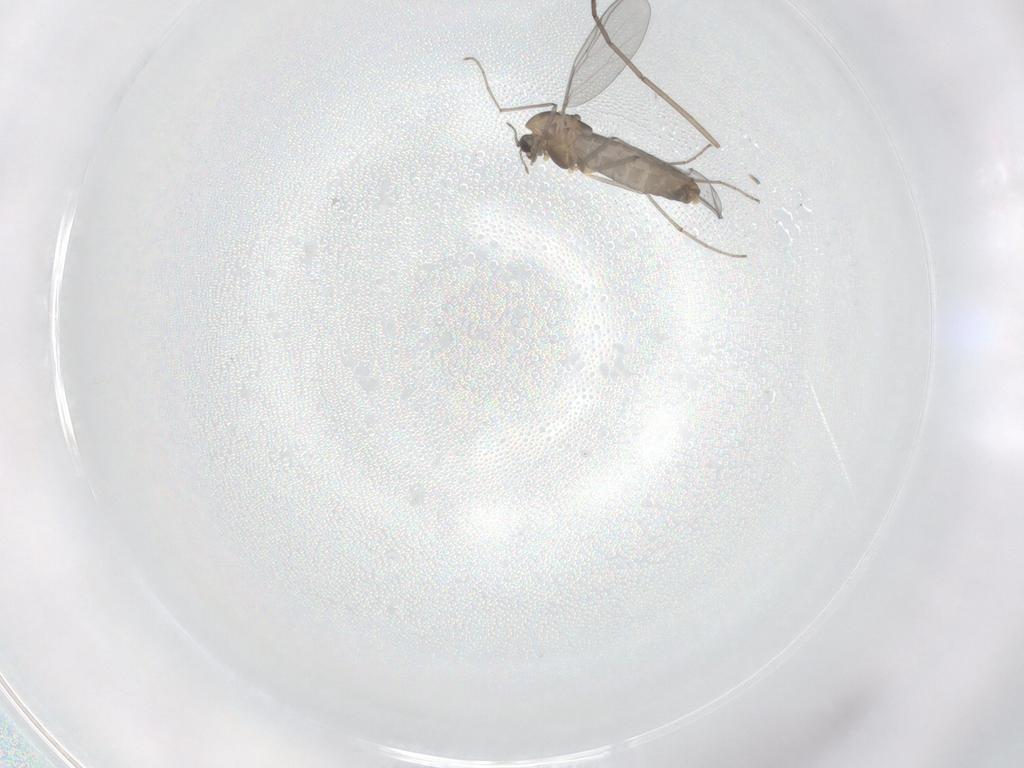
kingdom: Animalia
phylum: Arthropoda
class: Insecta
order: Diptera
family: Chironomidae
